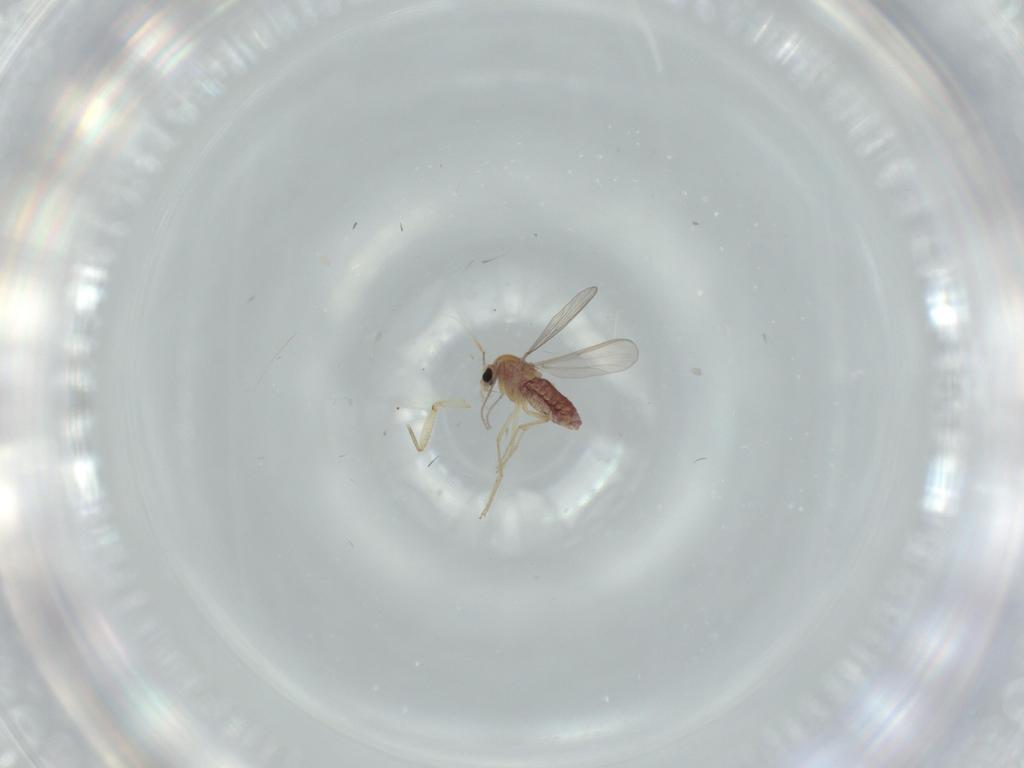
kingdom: Animalia
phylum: Arthropoda
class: Insecta
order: Diptera
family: Chironomidae
